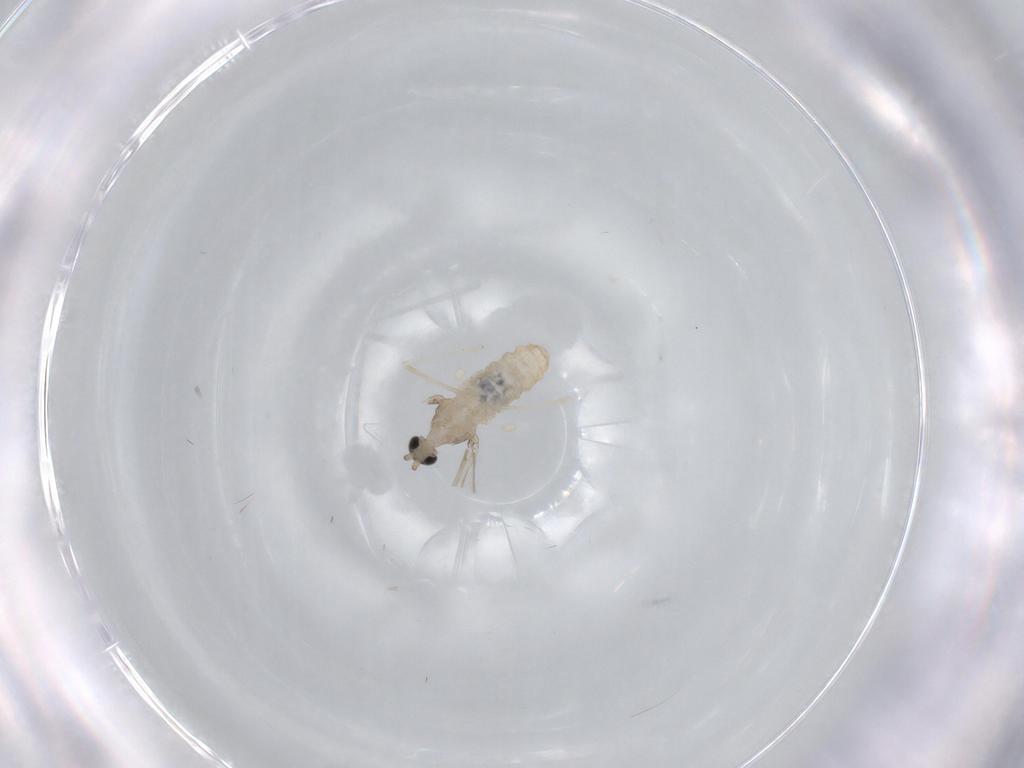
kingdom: Animalia
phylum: Arthropoda
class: Insecta
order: Diptera
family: Cecidomyiidae
